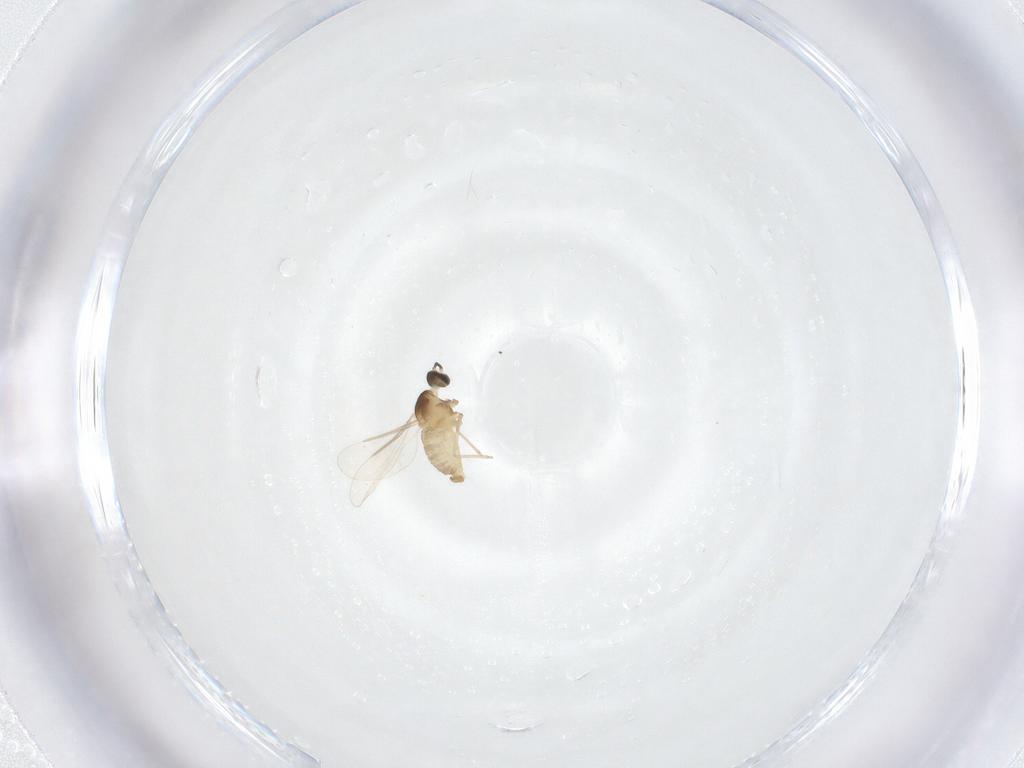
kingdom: Animalia
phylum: Arthropoda
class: Insecta
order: Diptera
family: Cecidomyiidae
